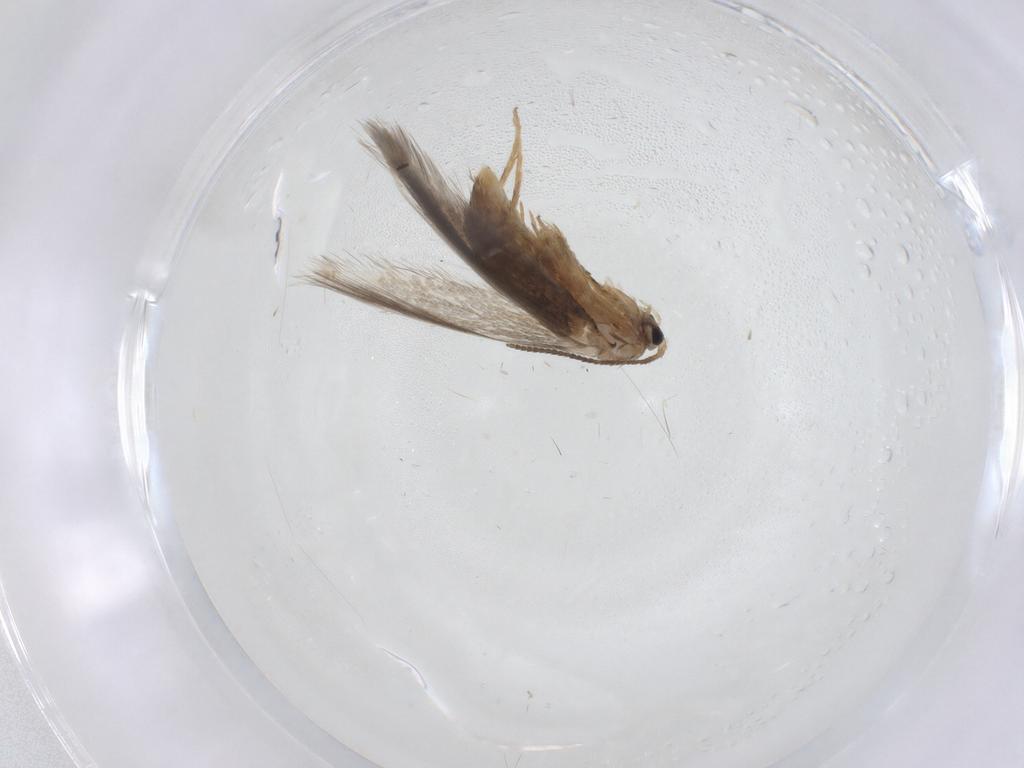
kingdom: Animalia
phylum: Arthropoda
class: Insecta
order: Lepidoptera
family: Nepticulidae
